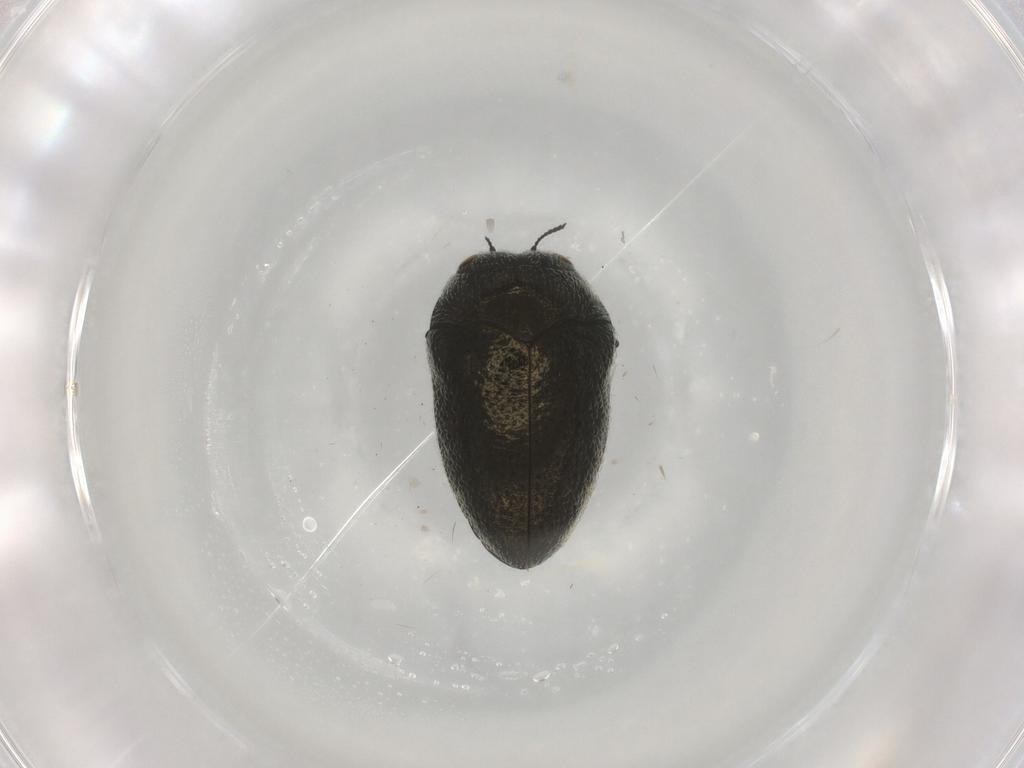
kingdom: Animalia
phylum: Arthropoda
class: Insecta
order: Coleoptera
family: Buprestidae
